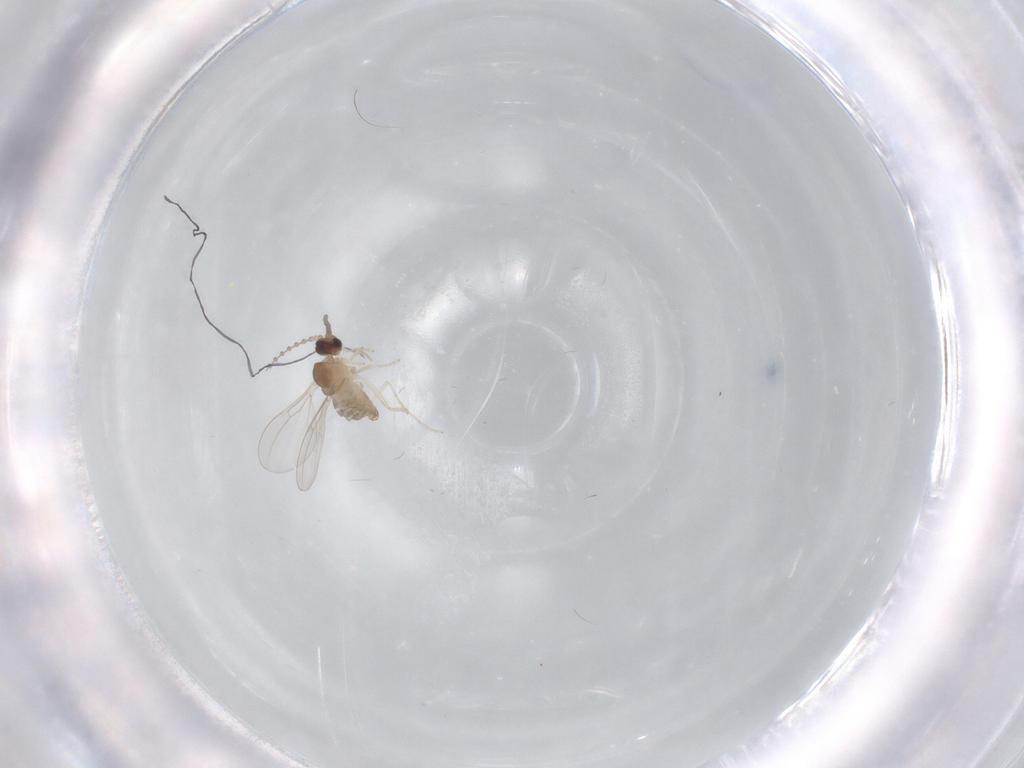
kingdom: Animalia
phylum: Arthropoda
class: Insecta
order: Diptera
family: Cecidomyiidae
